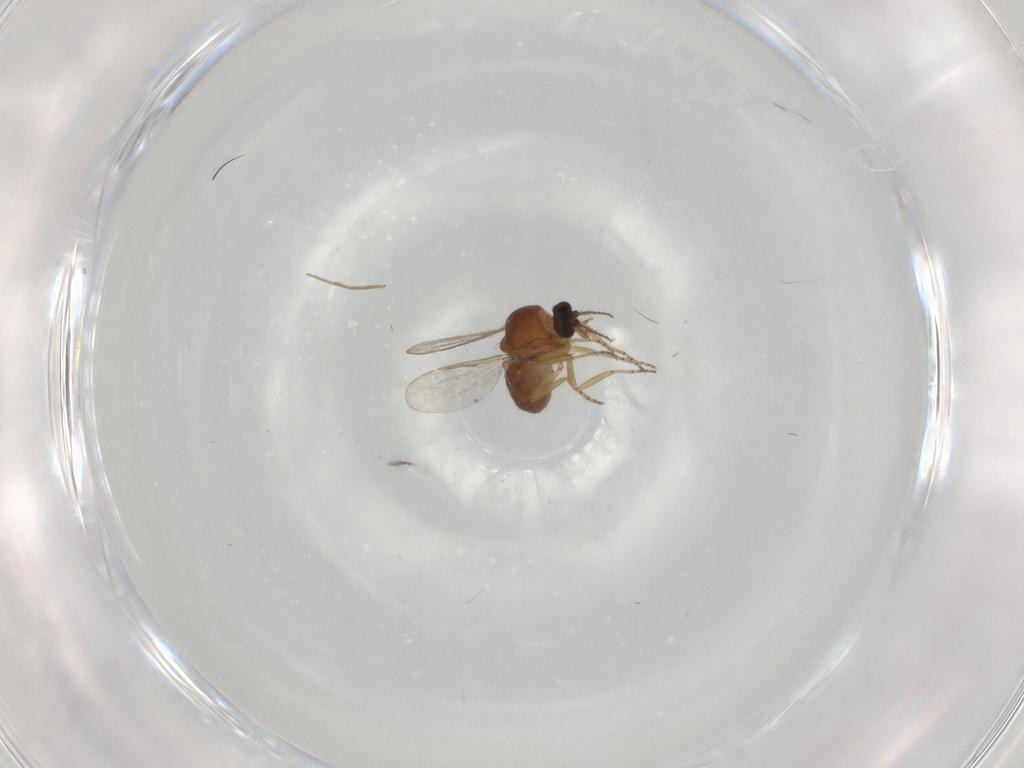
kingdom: Animalia
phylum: Arthropoda
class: Insecta
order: Diptera
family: Ceratopogonidae
